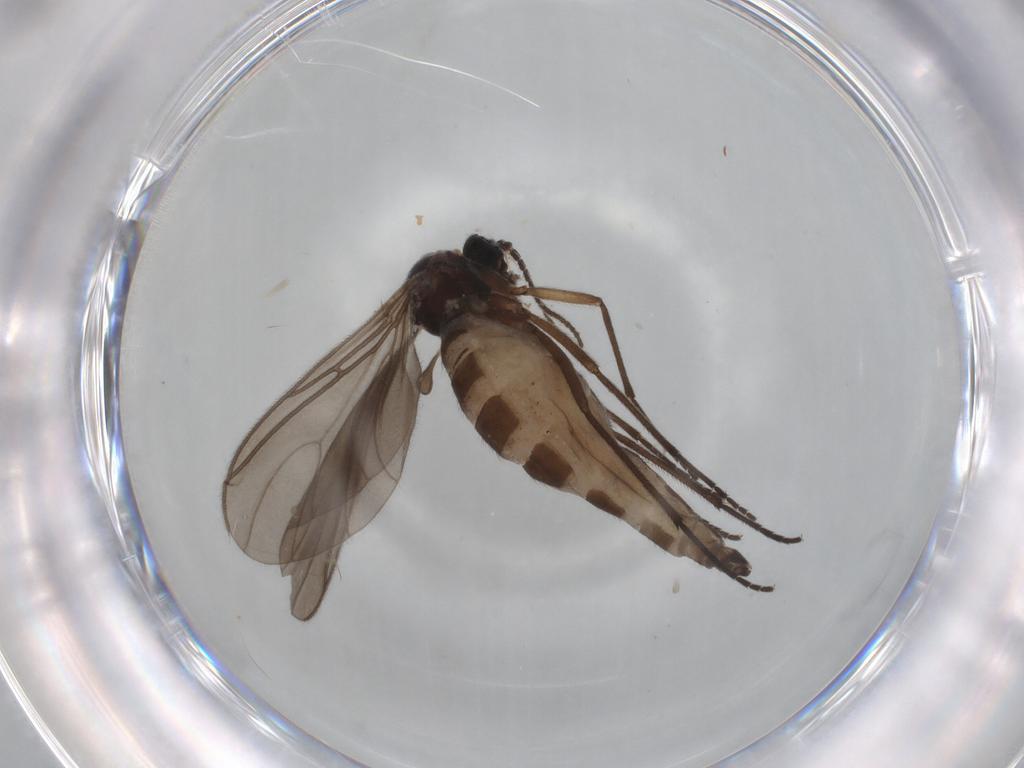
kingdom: Animalia
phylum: Arthropoda
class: Insecta
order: Diptera
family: Sciaridae
